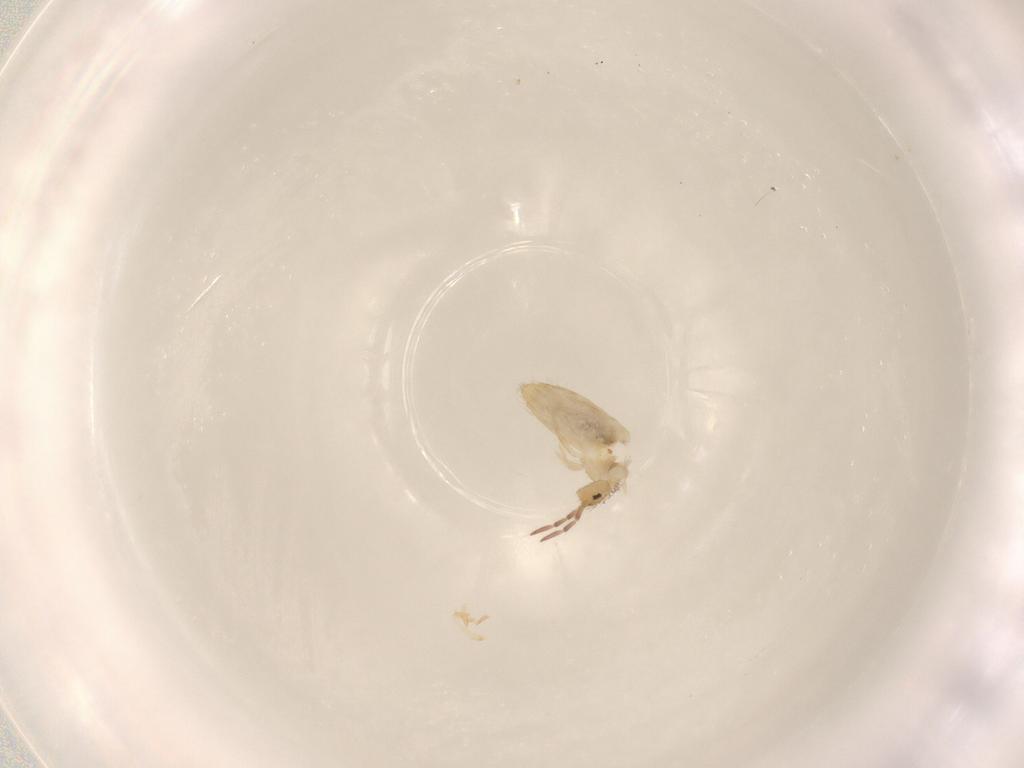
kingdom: Animalia
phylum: Arthropoda
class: Collembola
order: Entomobryomorpha
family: Entomobryidae
